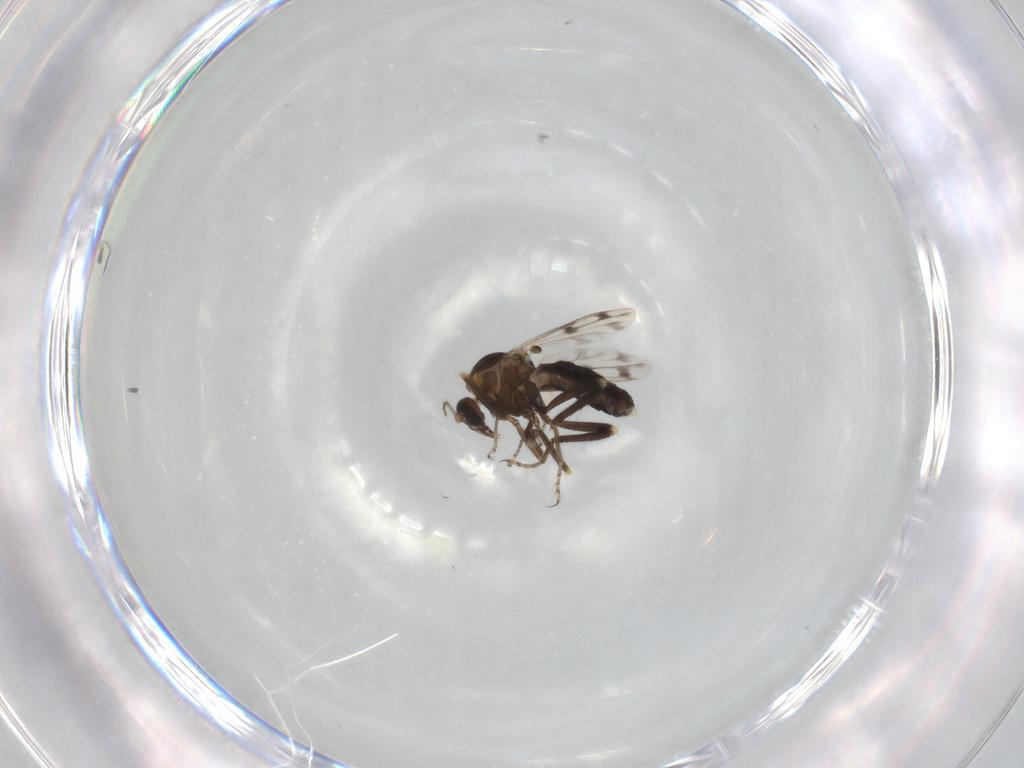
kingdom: Animalia
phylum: Arthropoda
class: Insecta
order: Diptera
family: Ceratopogonidae
